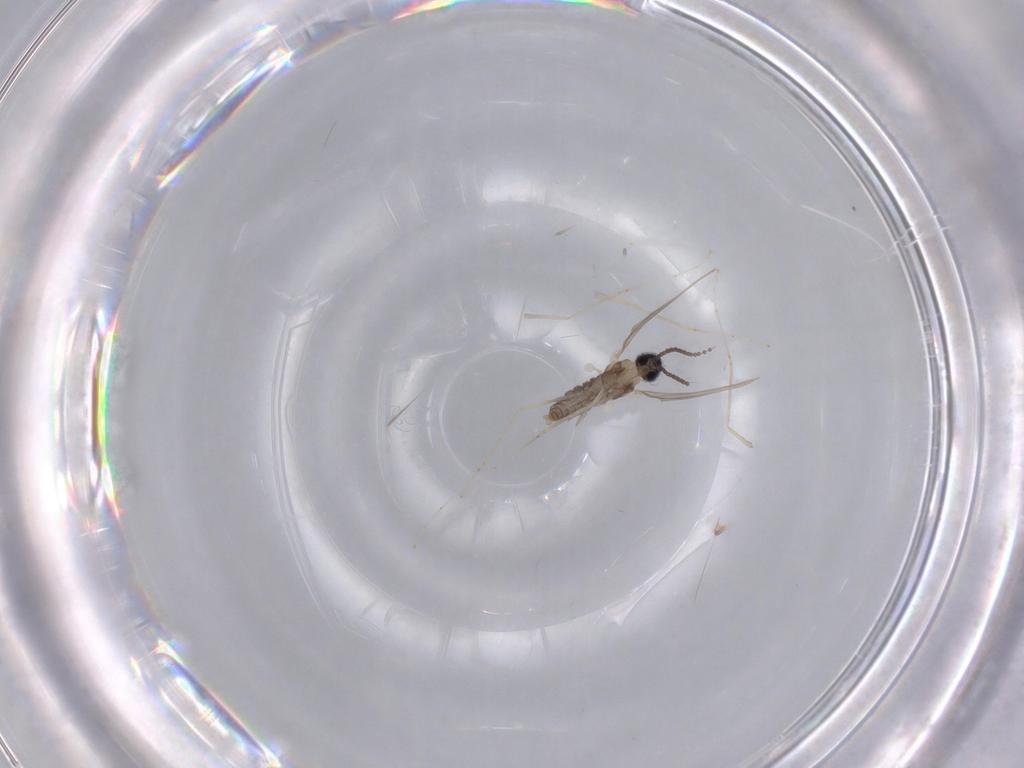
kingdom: Animalia
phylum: Arthropoda
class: Insecta
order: Diptera
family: Cecidomyiidae
